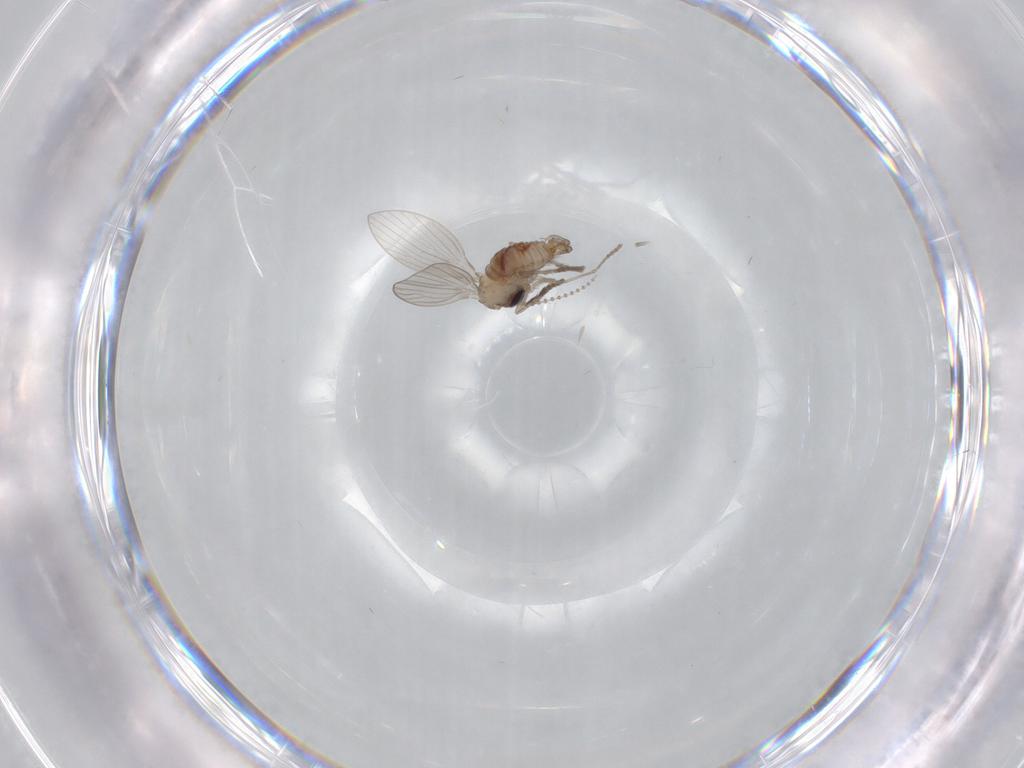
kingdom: Animalia
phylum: Arthropoda
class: Insecta
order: Diptera
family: Psychodidae
